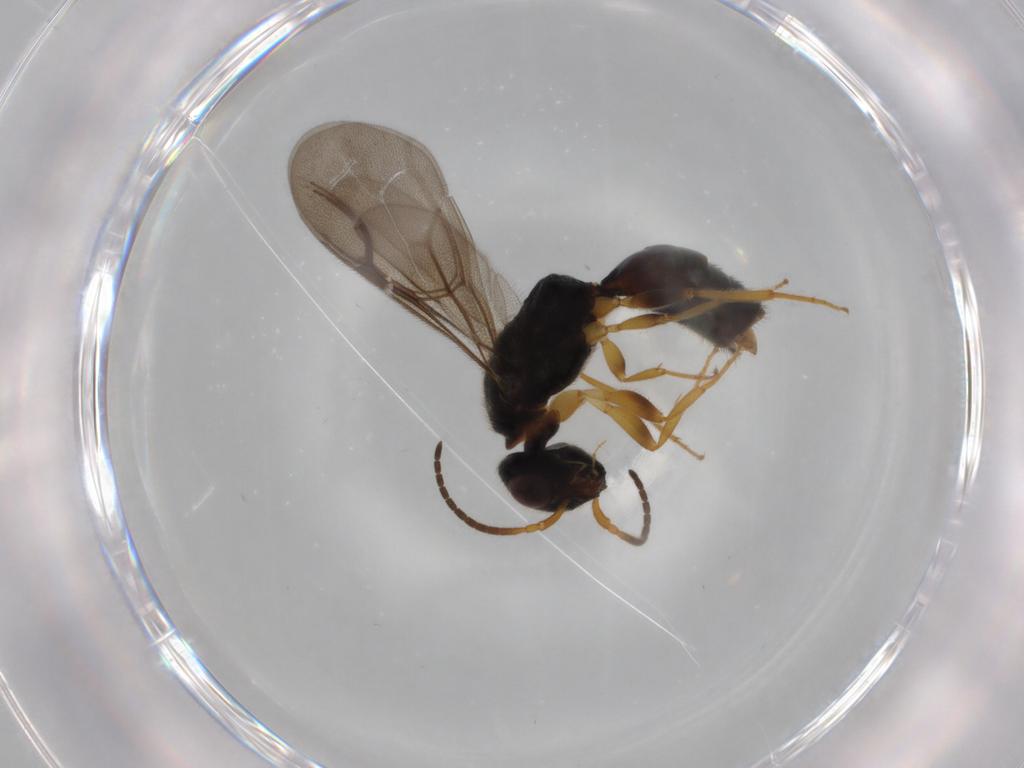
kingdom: Animalia
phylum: Arthropoda
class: Insecta
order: Hymenoptera
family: Bethylidae
